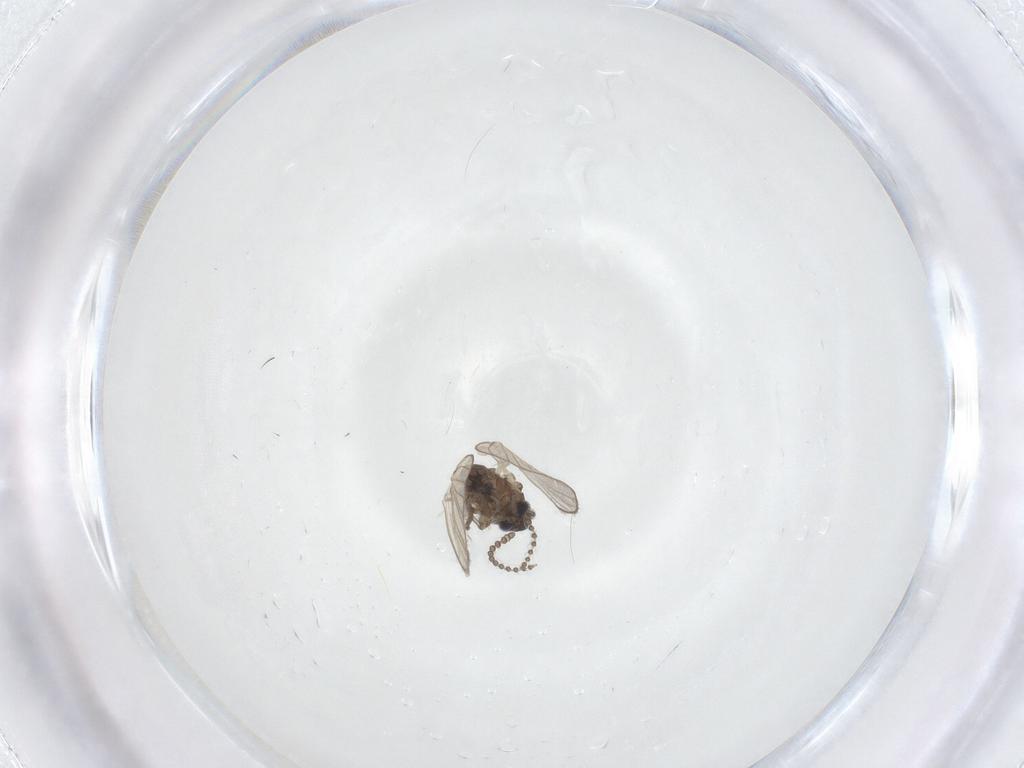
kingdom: Animalia
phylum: Arthropoda
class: Insecta
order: Diptera
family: Psychodidae
